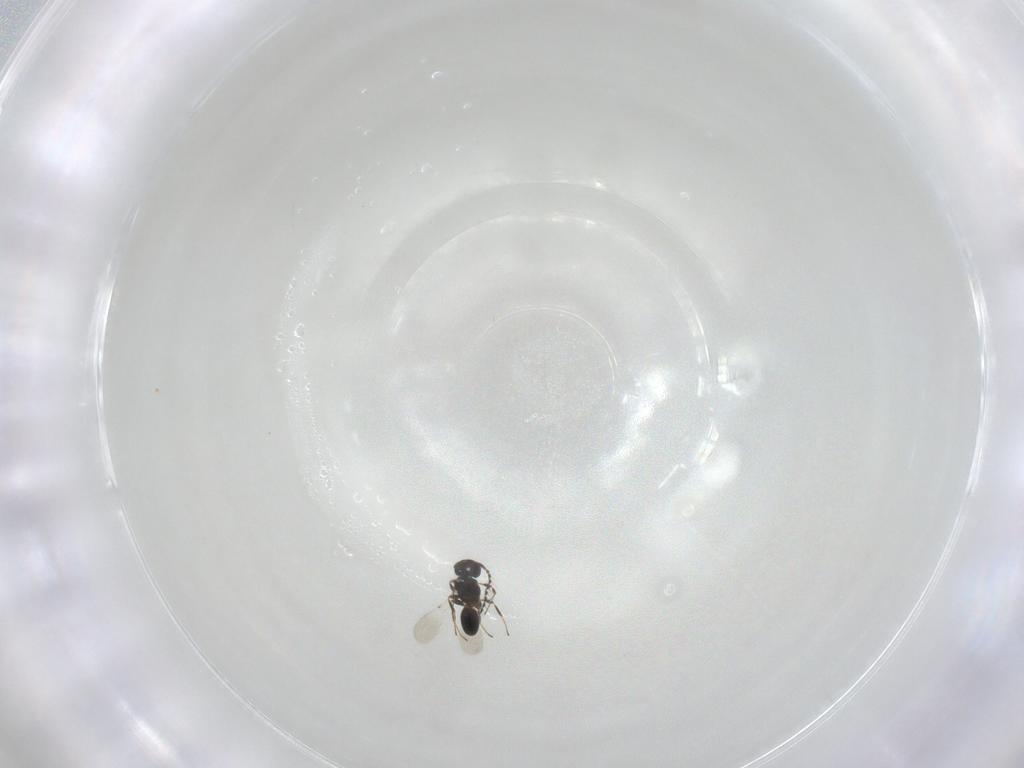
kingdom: Animalia
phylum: Arthropoda
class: Insecta
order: Hymenoptera
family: Platygastridae
